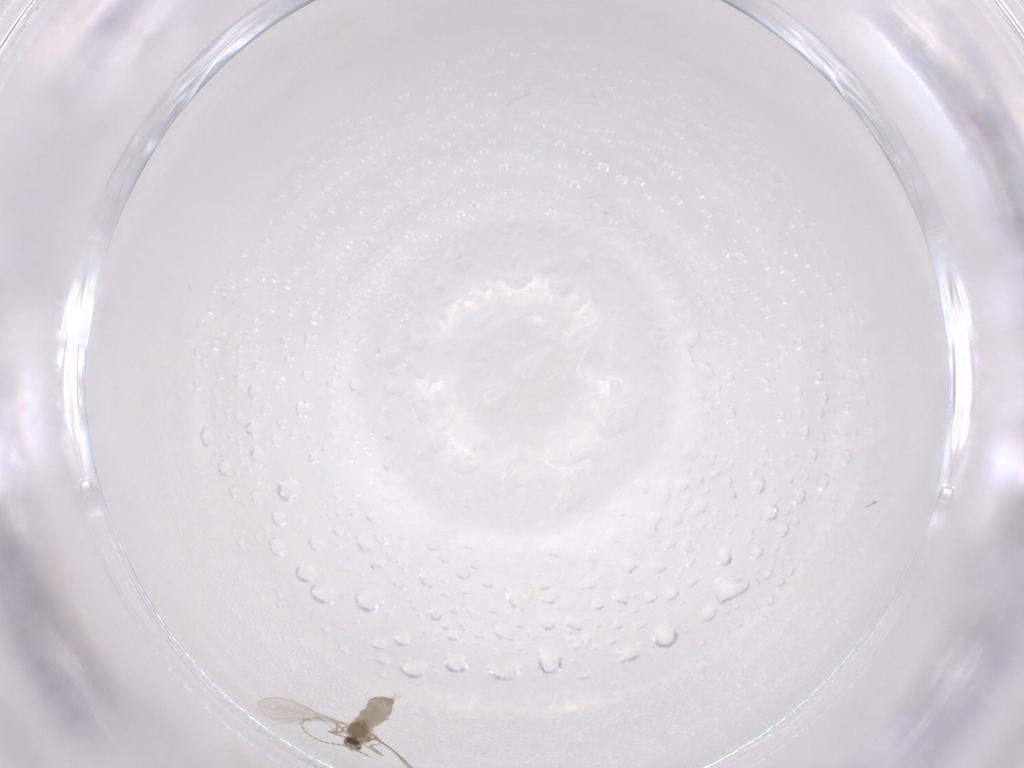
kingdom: Animalia
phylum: Arthropoda
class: Insecta
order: Diptera
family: Cecidomyiidae
